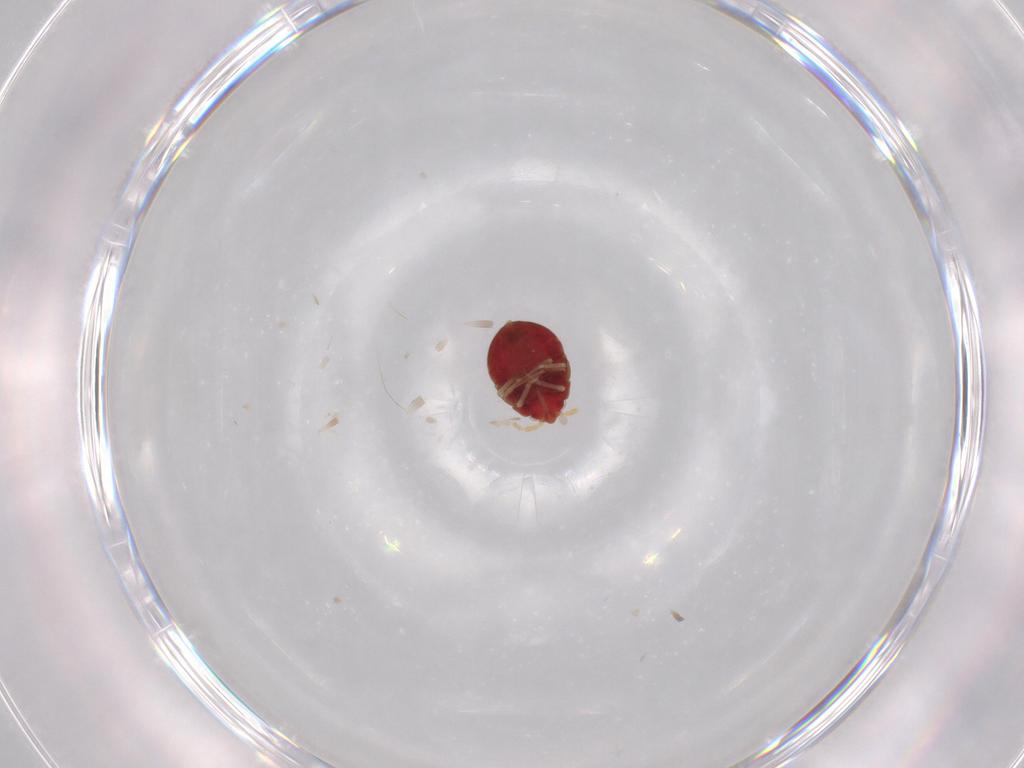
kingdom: Animalia
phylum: Arthropoda
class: Insecta
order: Hemiptera
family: Anthocoridae
